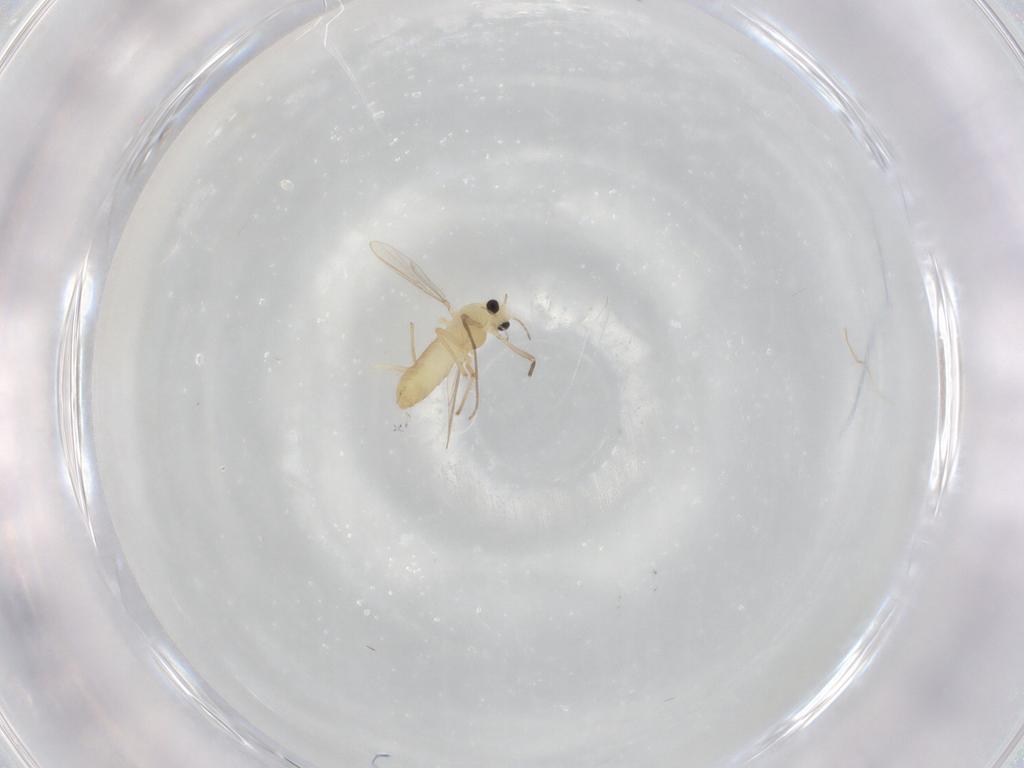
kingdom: Animalia
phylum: Arthropoda
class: Insecta
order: Diptera
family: Chironomidae
